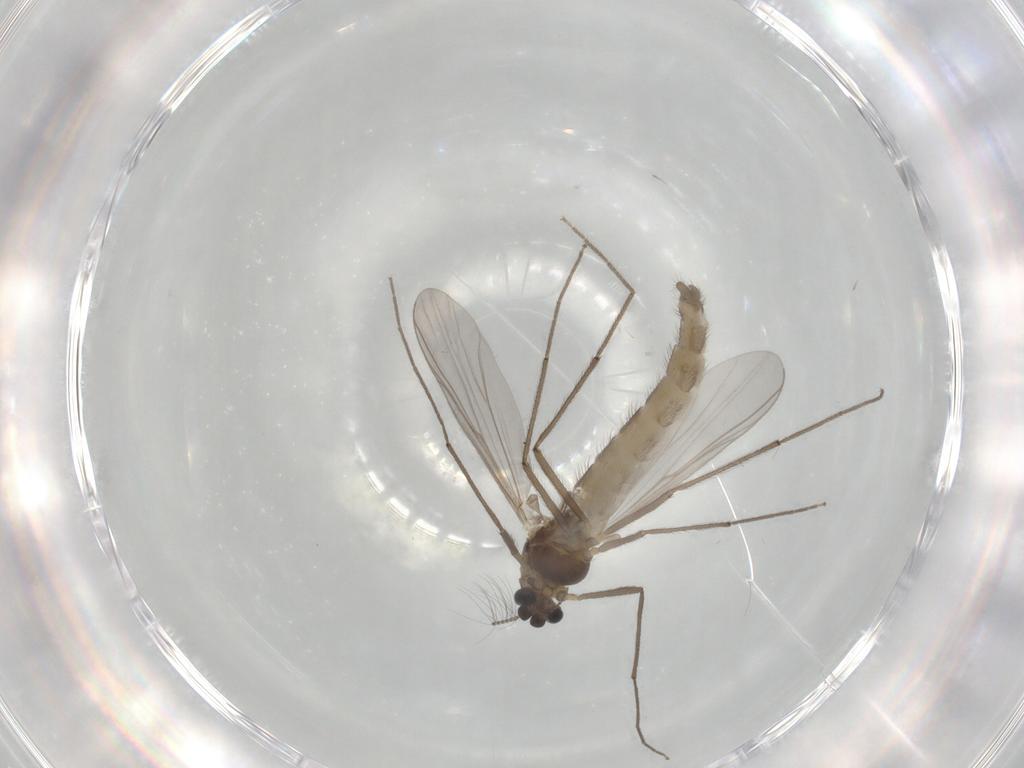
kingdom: Animalia
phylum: Arthropoda
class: Insecta
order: Diptera
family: Chironomidae
